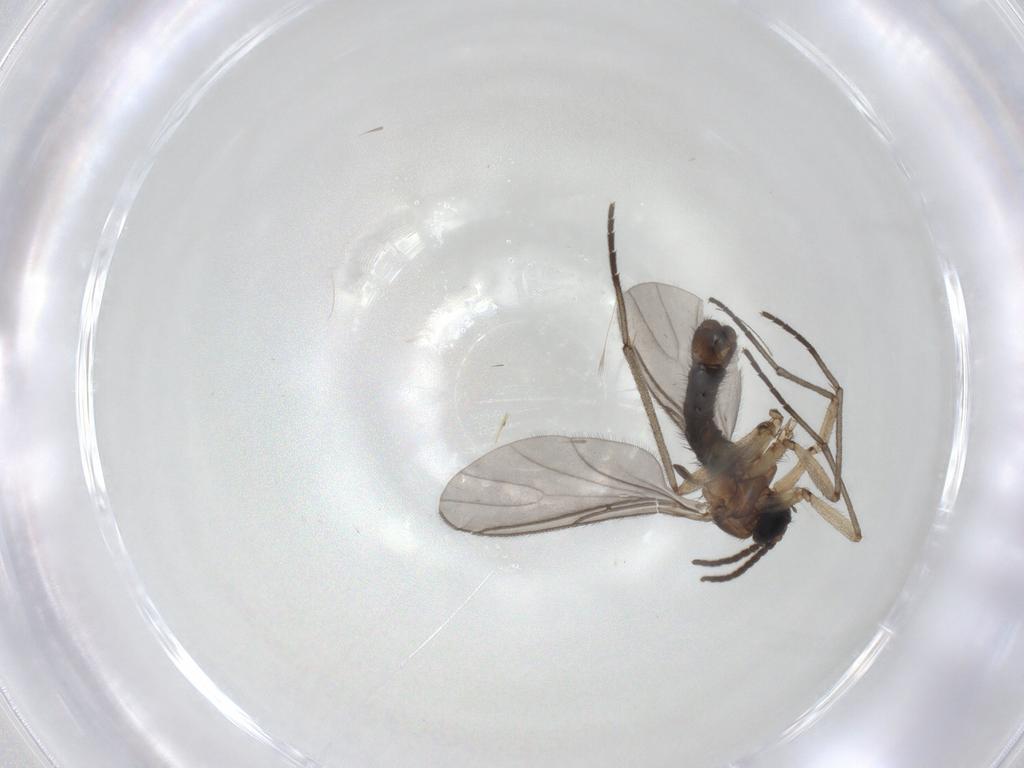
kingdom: Animalia
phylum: Arthropoda
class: Insecta
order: Diptera
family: Sciaridae
